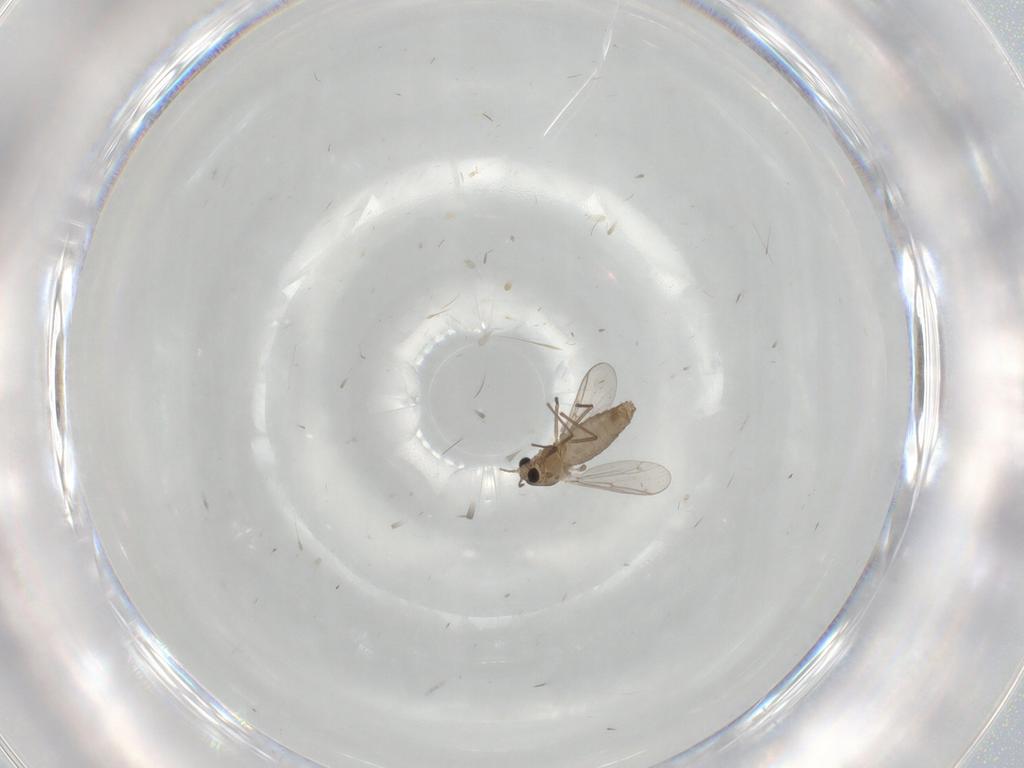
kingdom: Animalia
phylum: Arthropoda
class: Insecta
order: Diptera
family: Chironomidae
